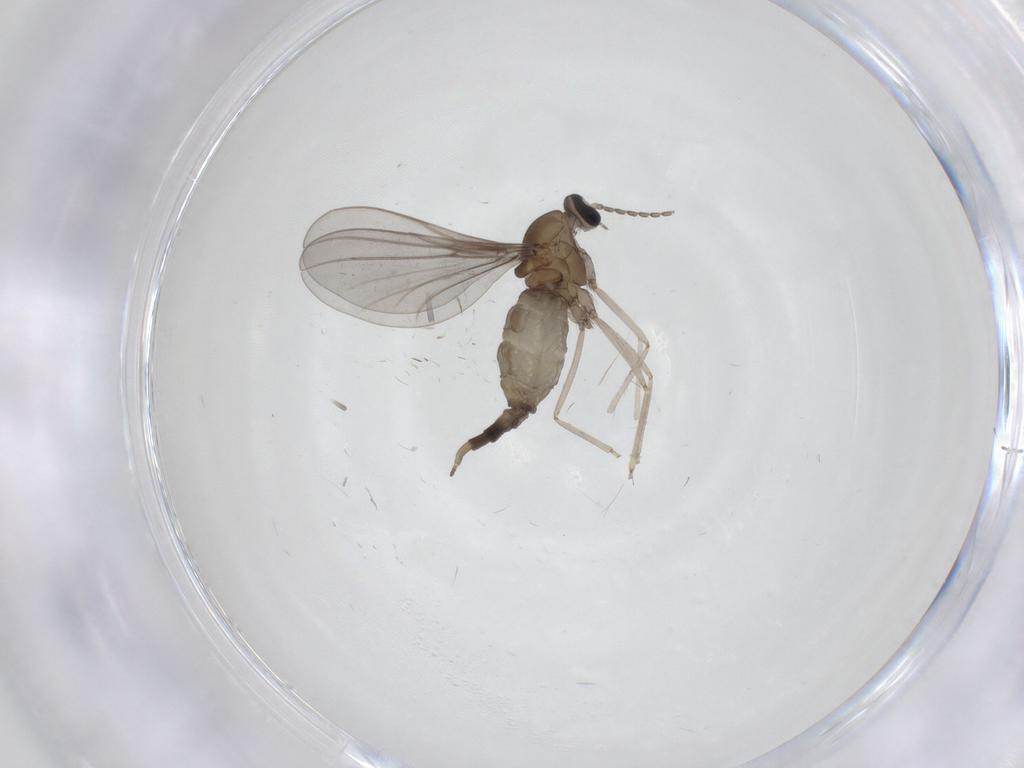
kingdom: Animalia
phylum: Arthropoda
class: Insecta
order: Diptera
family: Cecidomyiidae
